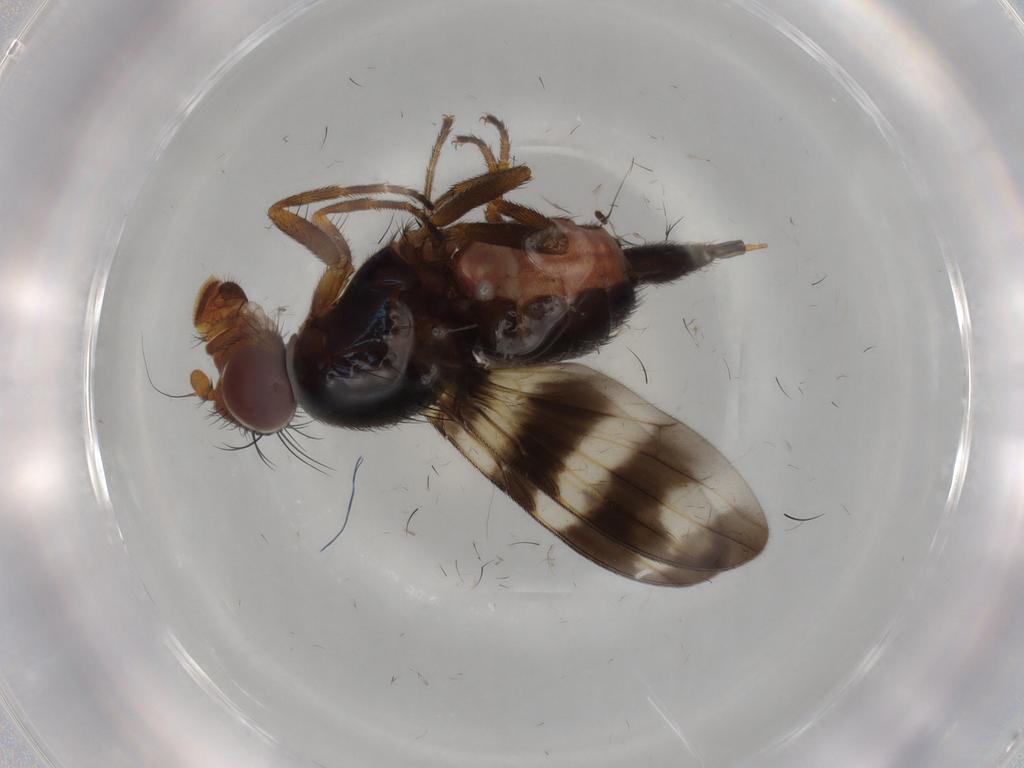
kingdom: Animalia
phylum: Arthropoda
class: Insecta
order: Diptera
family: Ulidiidae
